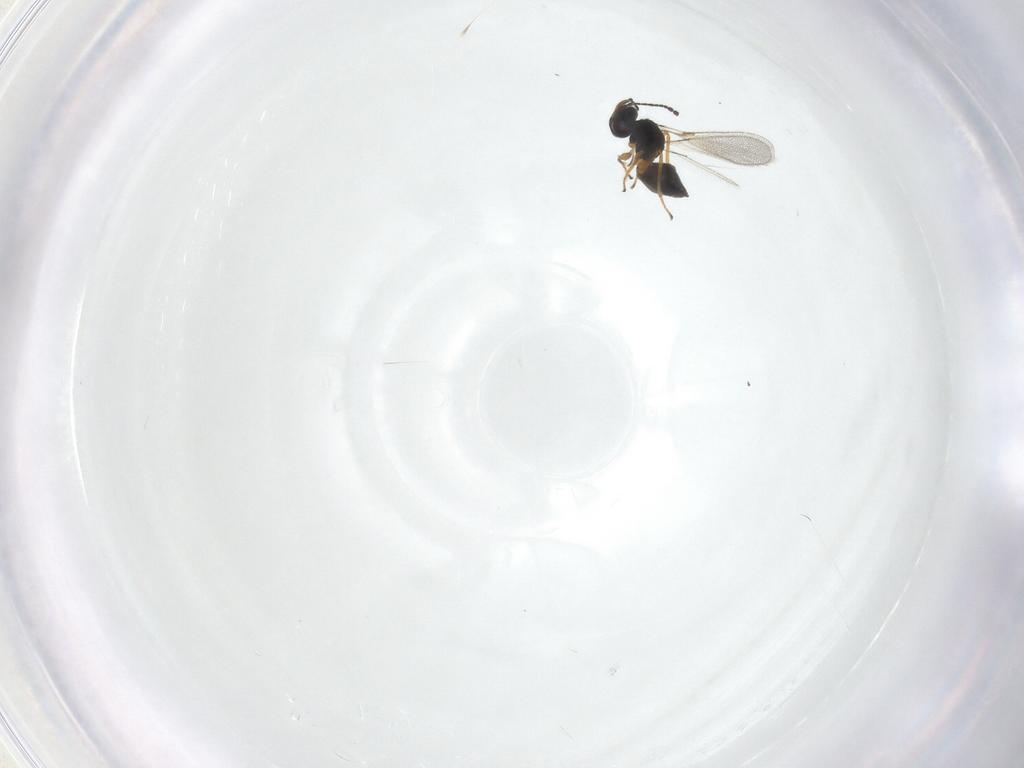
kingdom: Animalia
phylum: Arthropoda
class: Insecta
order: Hymenoptera
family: Mymaridae
